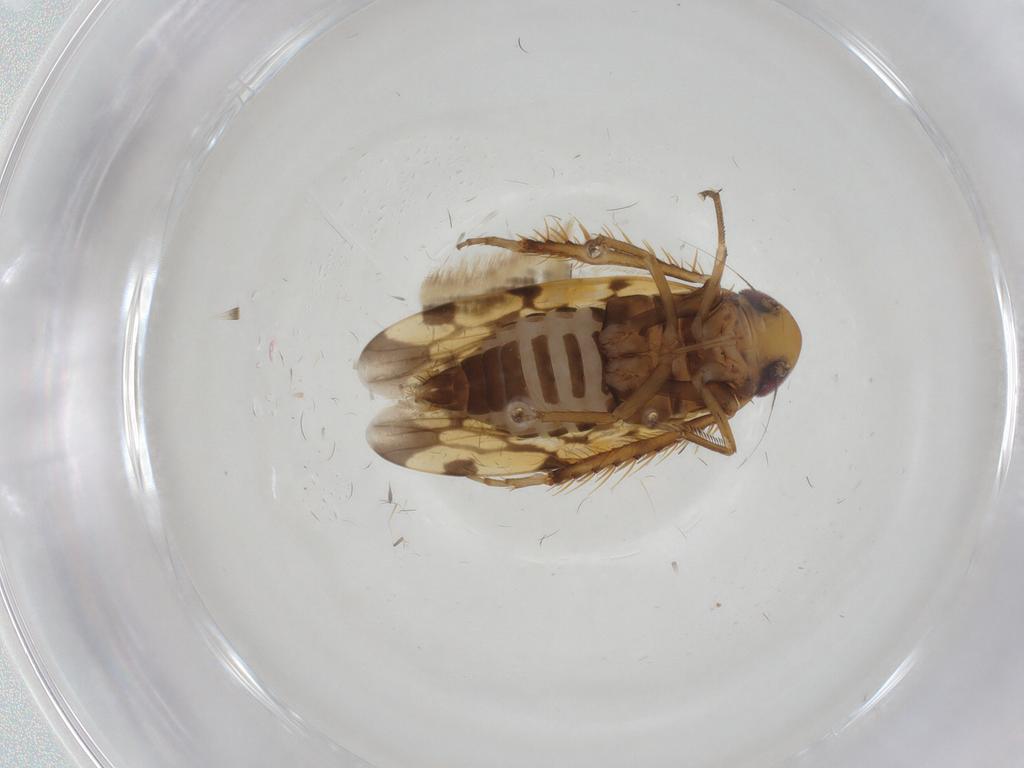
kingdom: Animalia
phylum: Arthropoda
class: Insecta
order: Hemiptera
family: Cicadellidae
